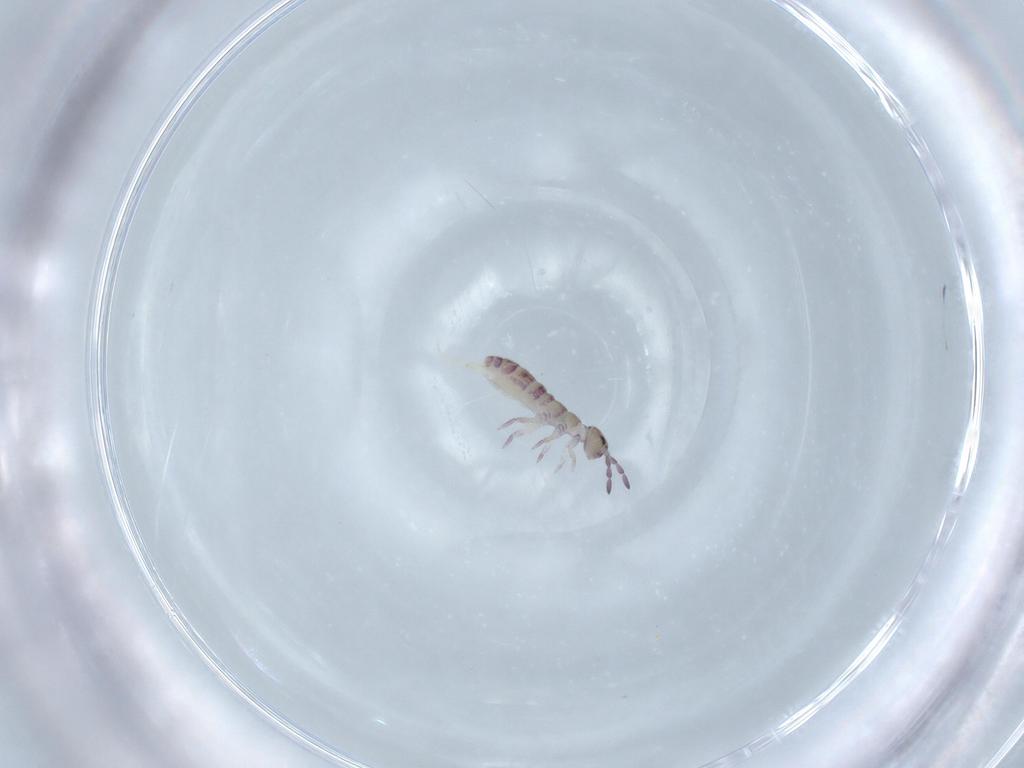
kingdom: Animalia
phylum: Arthropoda
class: Collembola
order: Entomobryomorpha
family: Isotomidae
